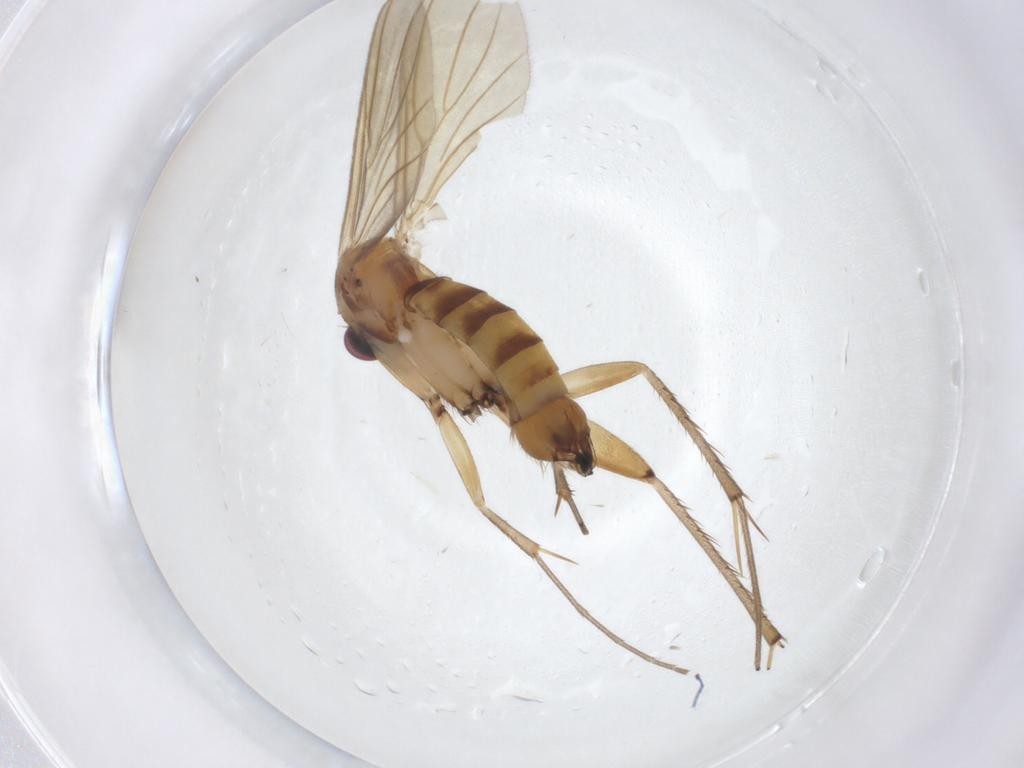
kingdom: Animalia
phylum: Arthropoda
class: Insecta
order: Diptera
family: Mycetophilidae
